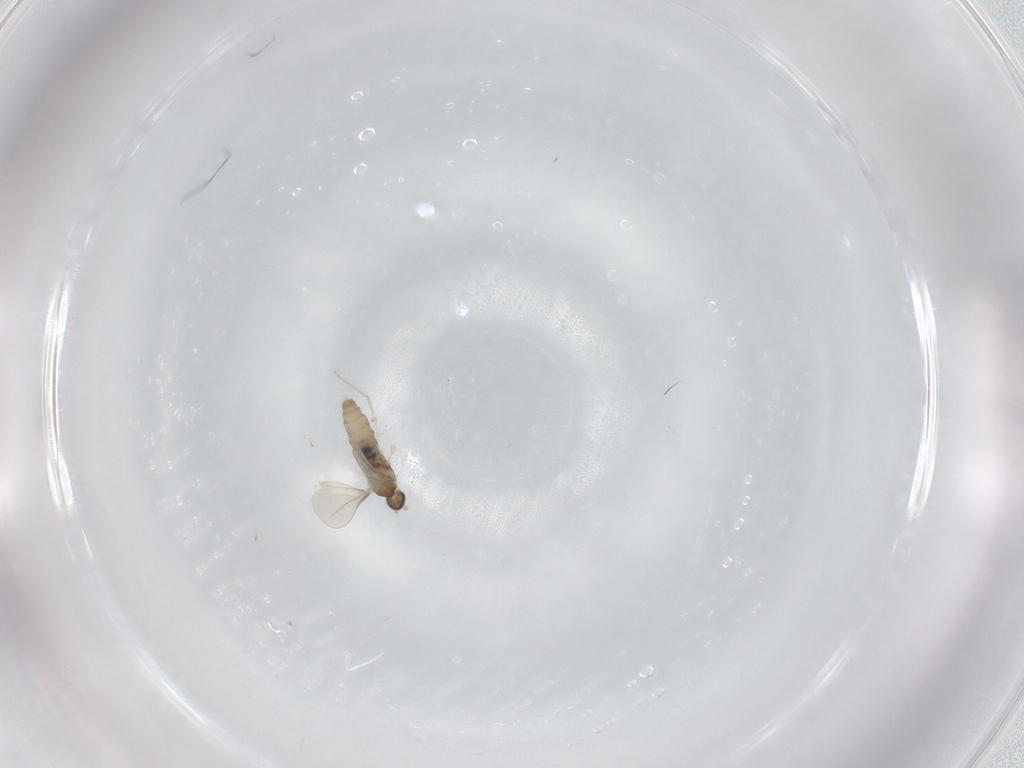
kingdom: Animalia
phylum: Arthropoda
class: Insecta
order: Diptera
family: Cecidomyiidae
